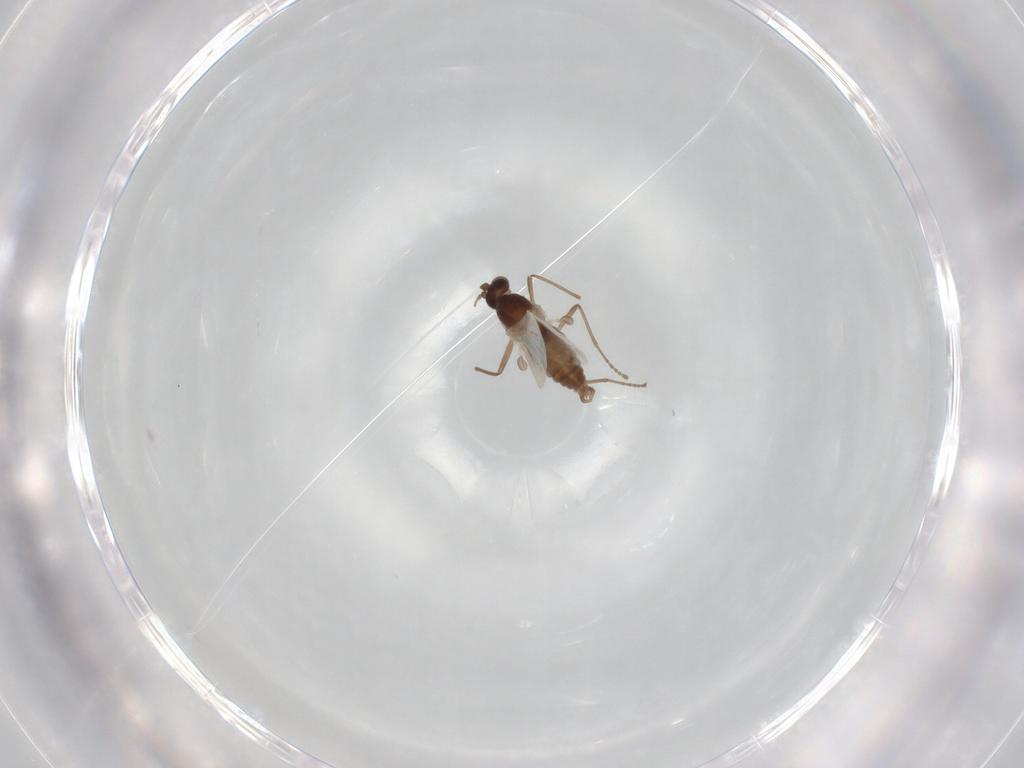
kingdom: Animalia
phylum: Arthropoda
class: Insecta
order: Diptera
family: Cecidomyiidae
